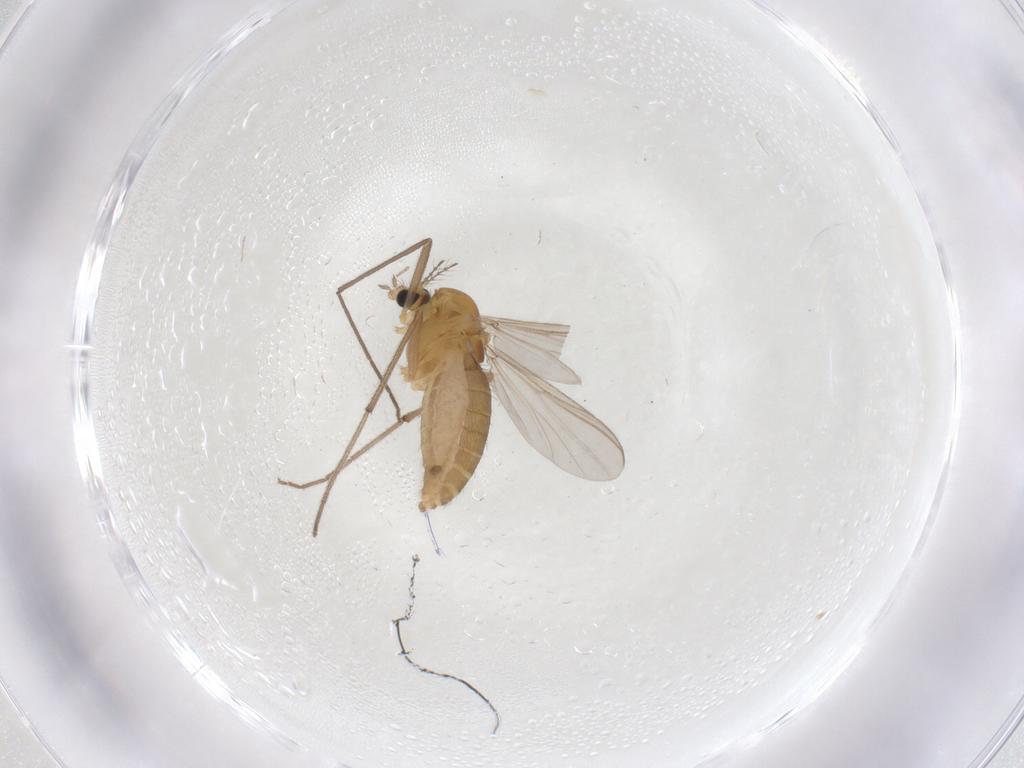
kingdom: Animalia
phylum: Arthropoda
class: Insecta
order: Diptera
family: Chironomidae
